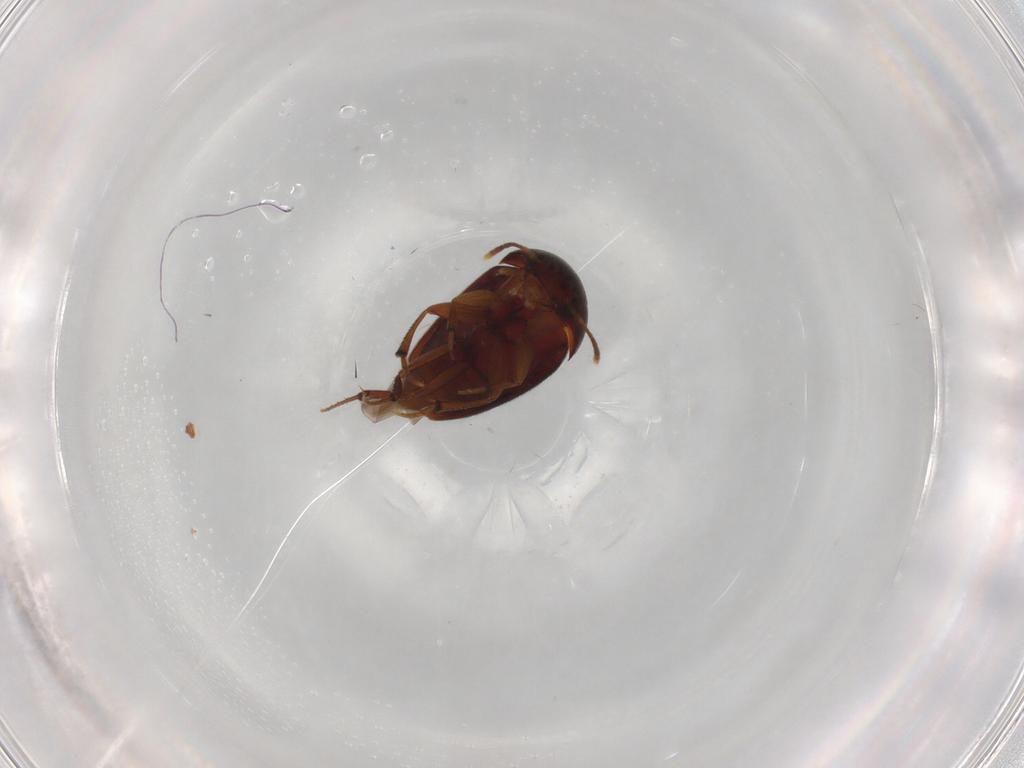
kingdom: Animalia
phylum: Arthropoda
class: Insecta
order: Coleoptera
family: Leiodidae
